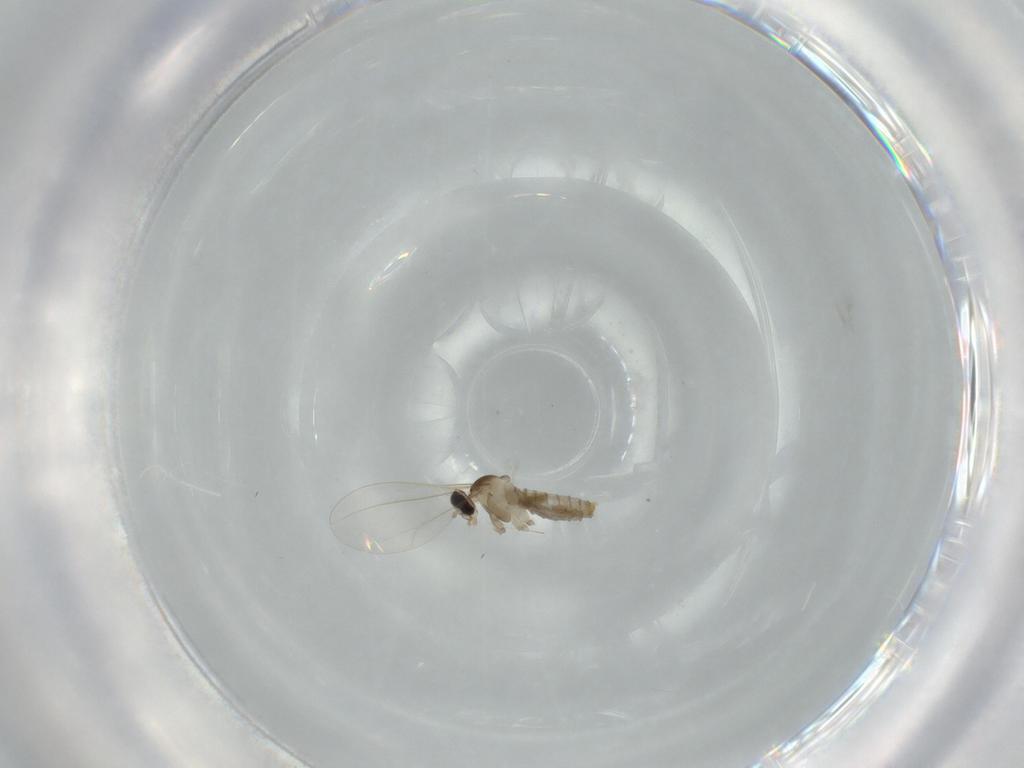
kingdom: Animalia
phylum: Arthropoda
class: Insecta
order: Diptera
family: Cecidomyiidae
